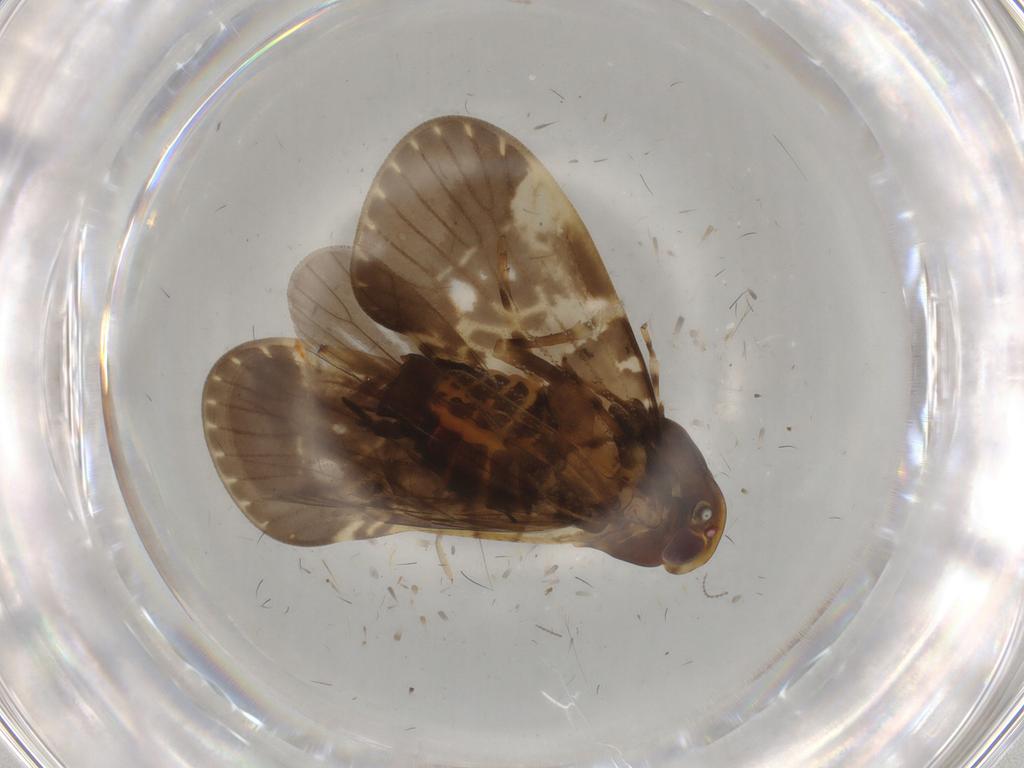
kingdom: Animalia
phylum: Arthropoda
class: Insecta
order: Hemiptera
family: Cixiidae
